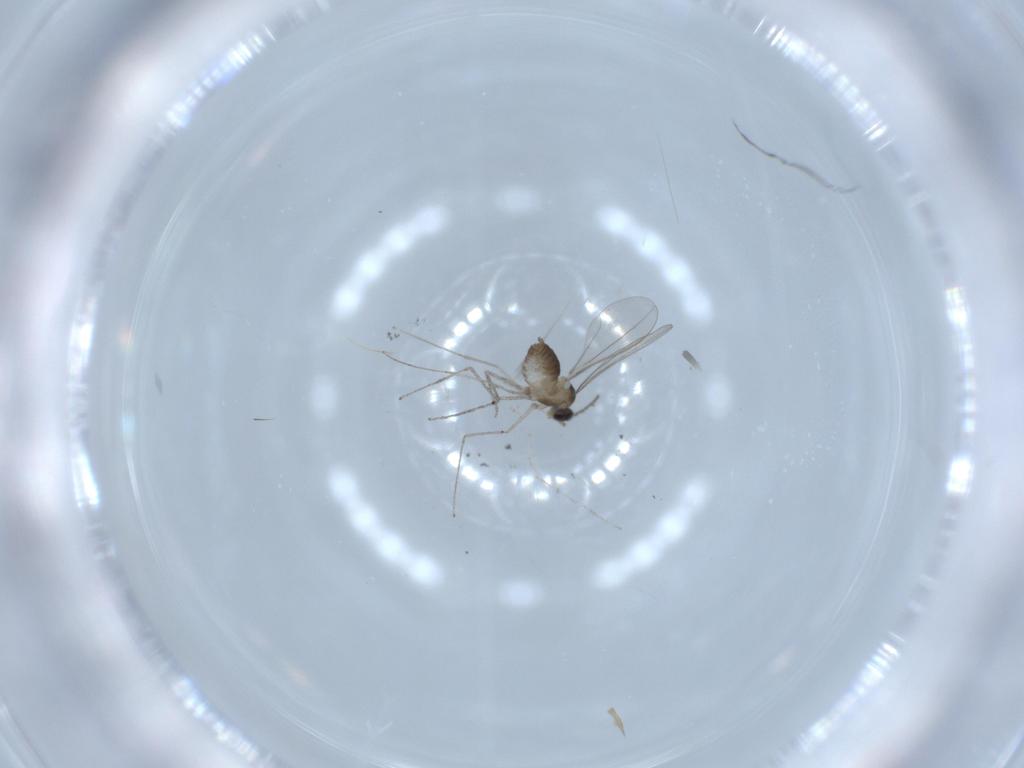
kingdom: Animalia
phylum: Arthropoda
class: Insecta
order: Diptera
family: Cecidomyiidae
